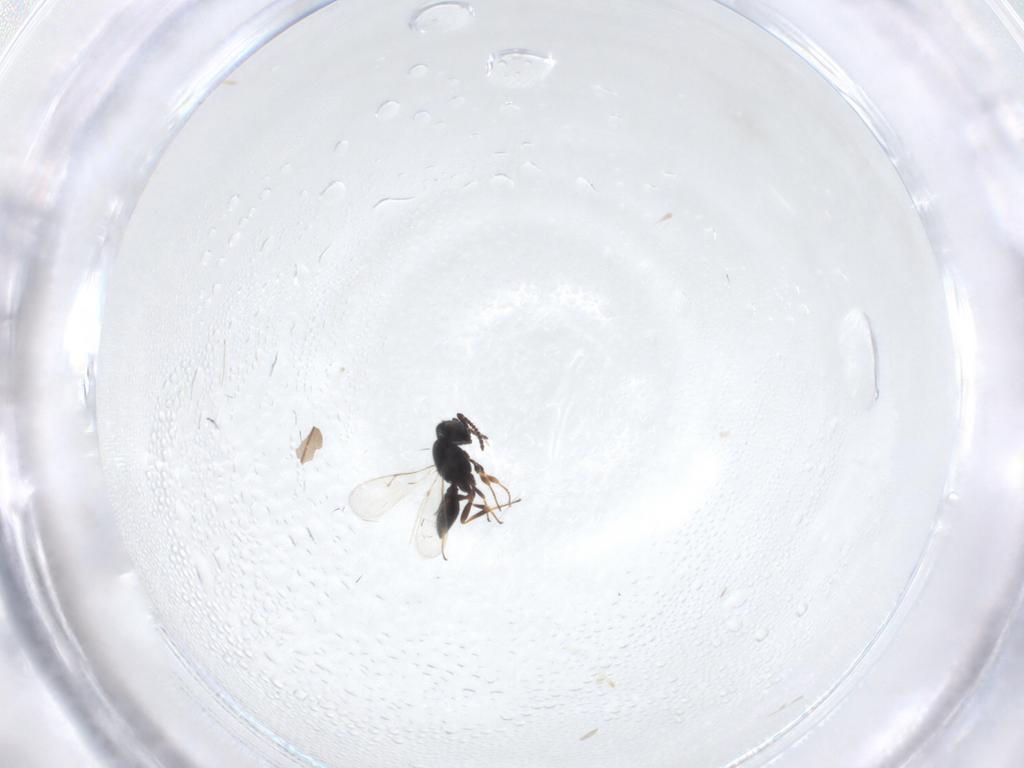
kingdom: Animalia
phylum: Arthropoda
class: Insecta
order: Hymenoptera
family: Scelionidae
